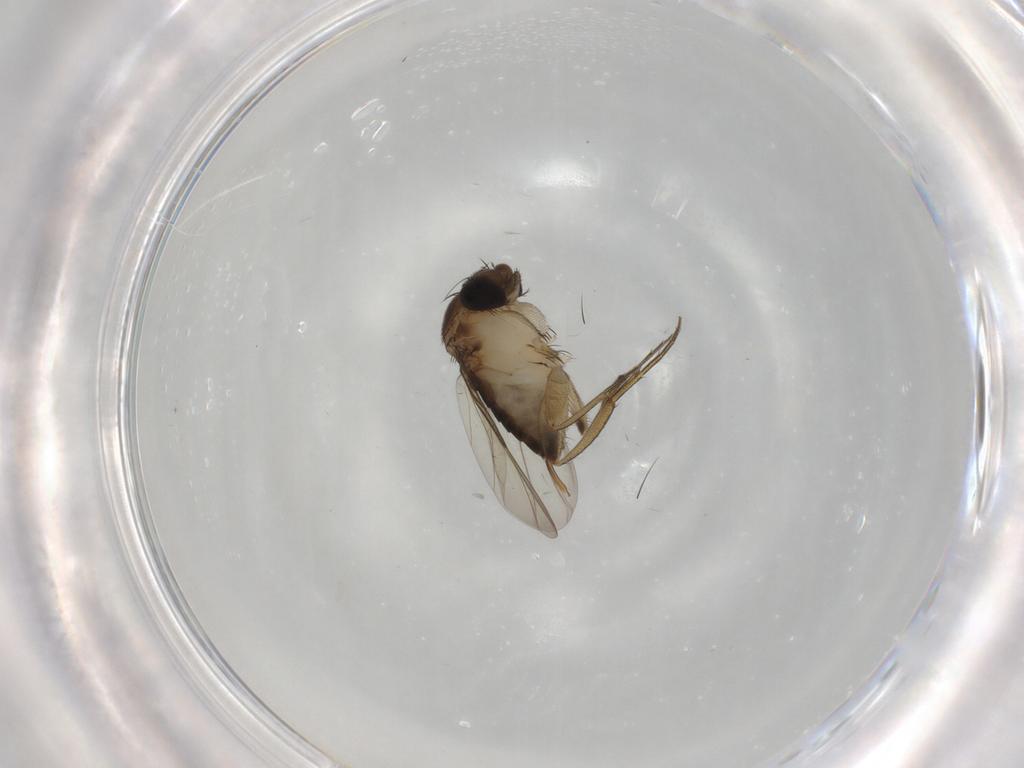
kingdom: Animalia
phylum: Arthropoda
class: Insecta
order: Diptera
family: Phoridae
